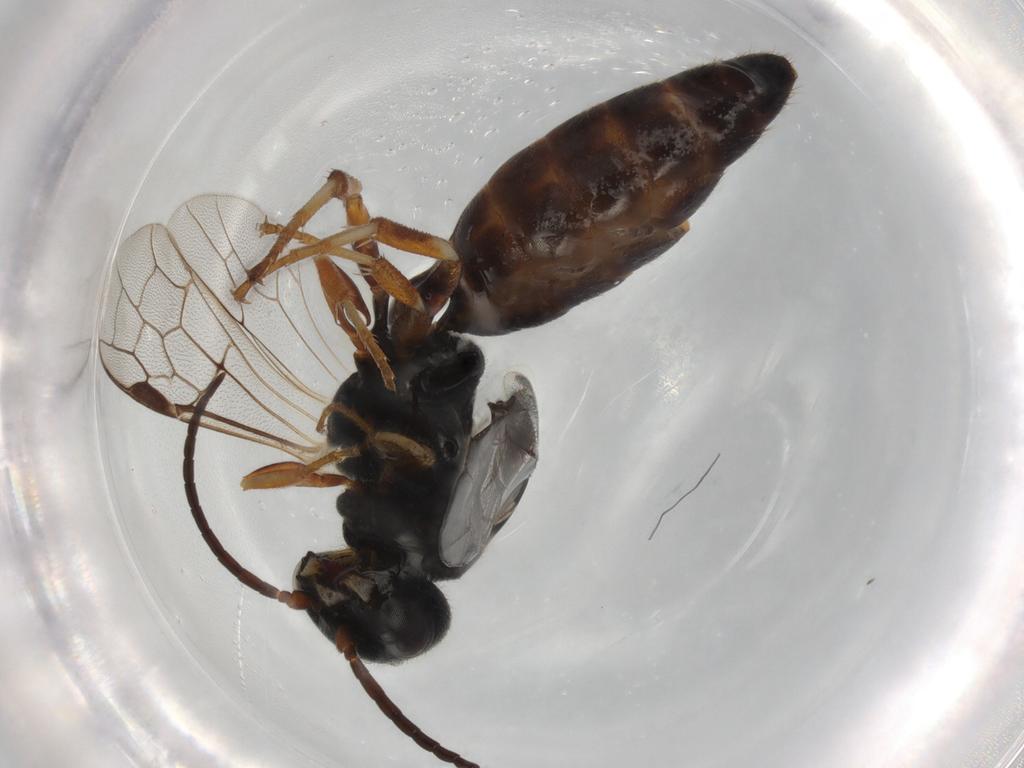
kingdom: Animalia
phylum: Arthropoda
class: Insecta
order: Hymenoptera
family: Thynnidae
